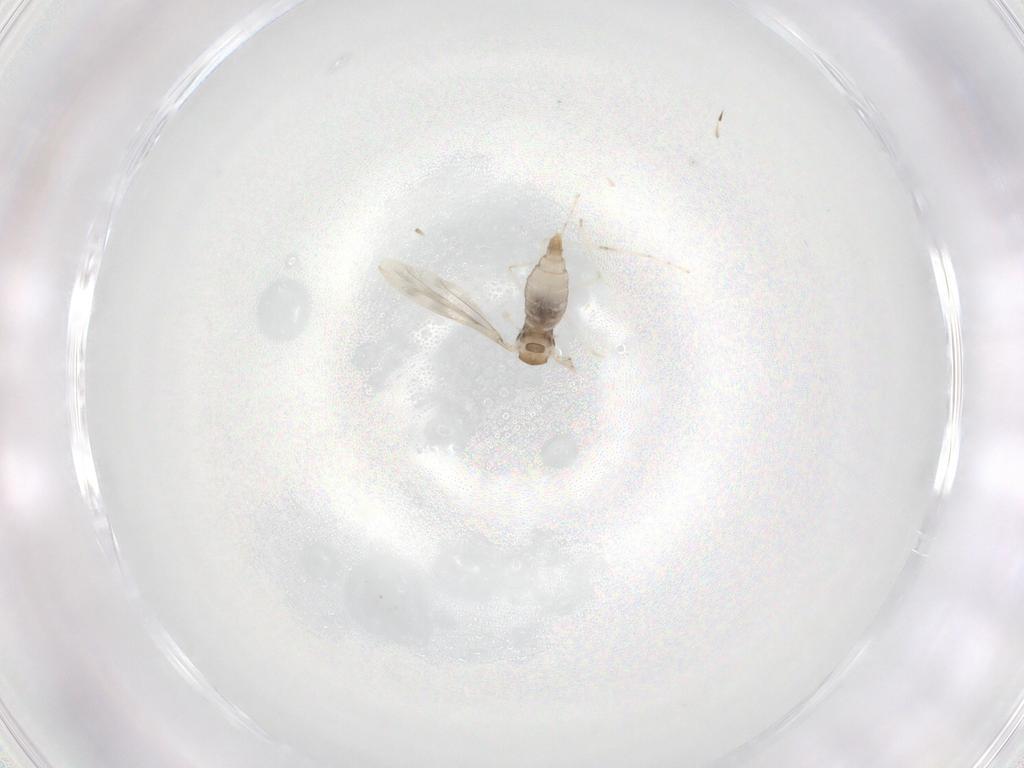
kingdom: Animalia
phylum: Arthropoda
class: Insecta
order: Diptera
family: Cecidomyiidae
